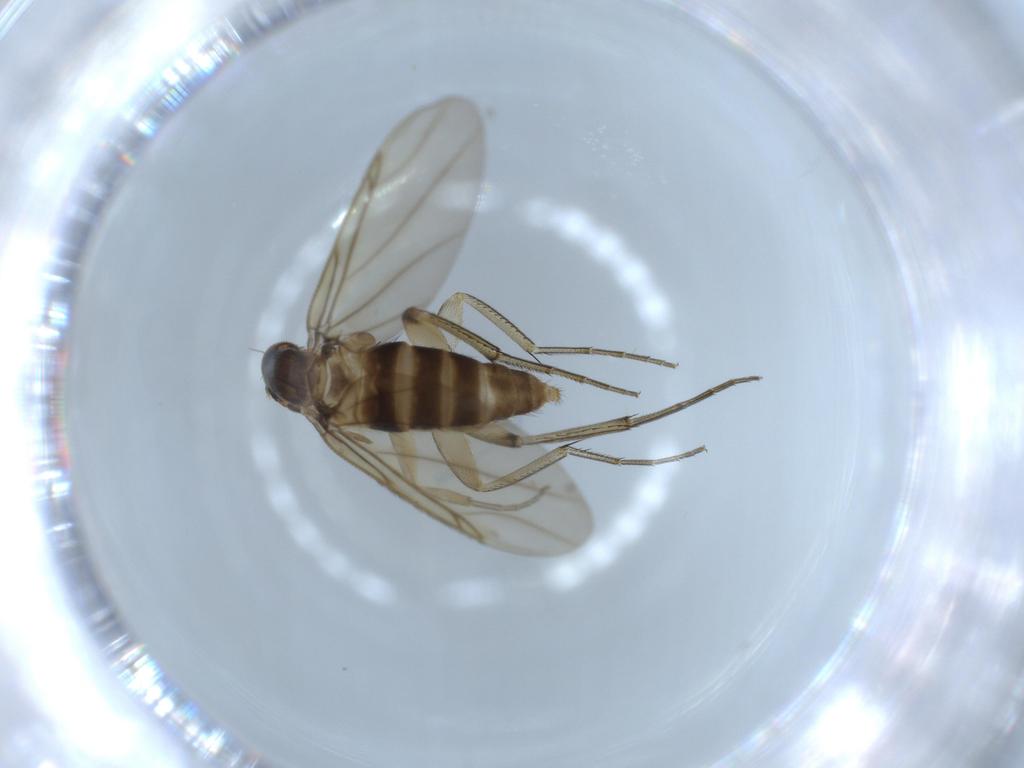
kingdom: Animalia
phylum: Arthropoda
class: Insecta
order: Diptera
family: Phoridae
